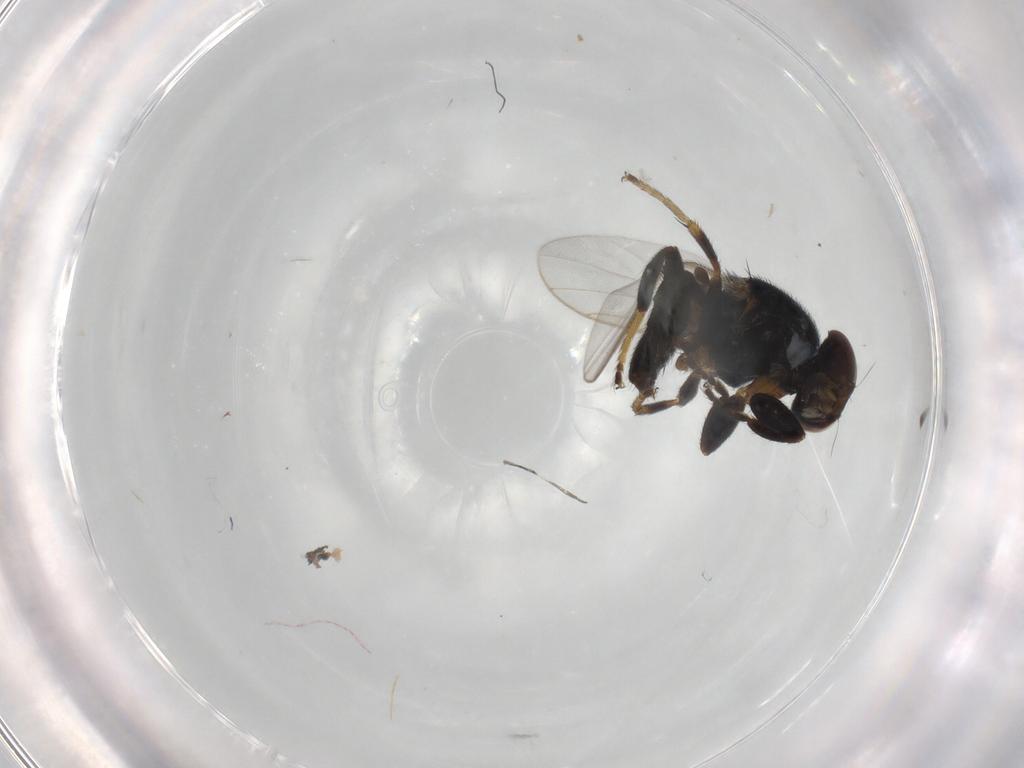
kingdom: Animalia
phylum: Arthropoda
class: Insecta
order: Diptera
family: Chloropidae
